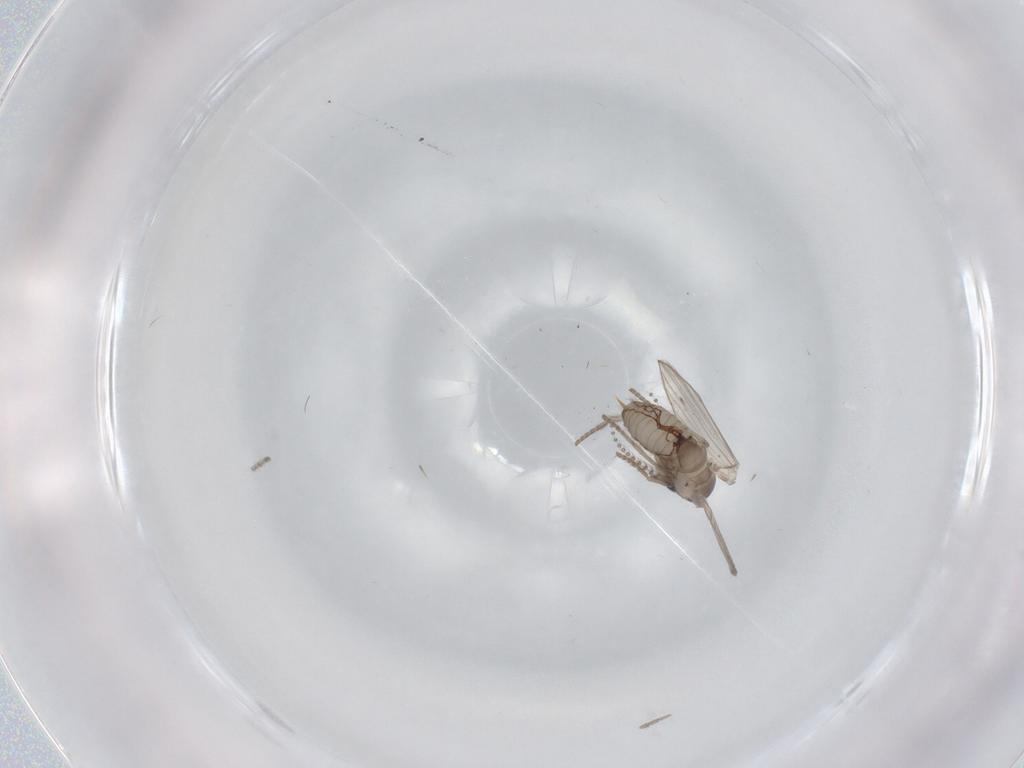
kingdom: Animalia
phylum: Arthropoda
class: Insecta
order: Diptera
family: Psychodidae
